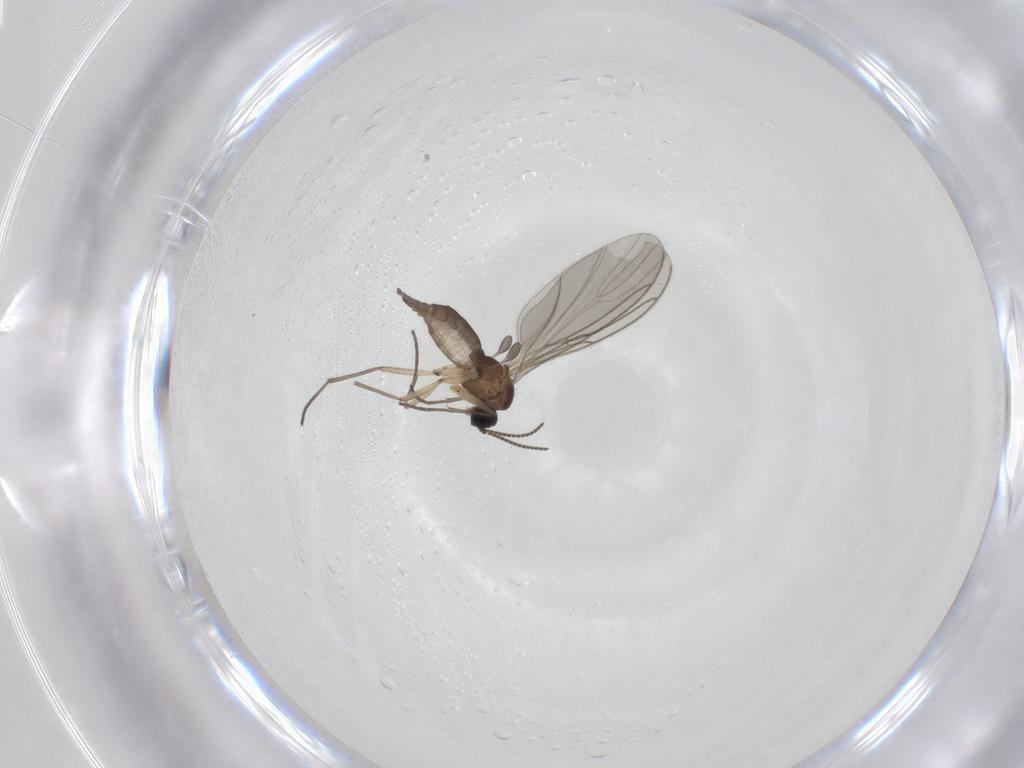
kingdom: Animalia
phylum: Arthropoda
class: Insecta
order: Diptera
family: Sciaridae
